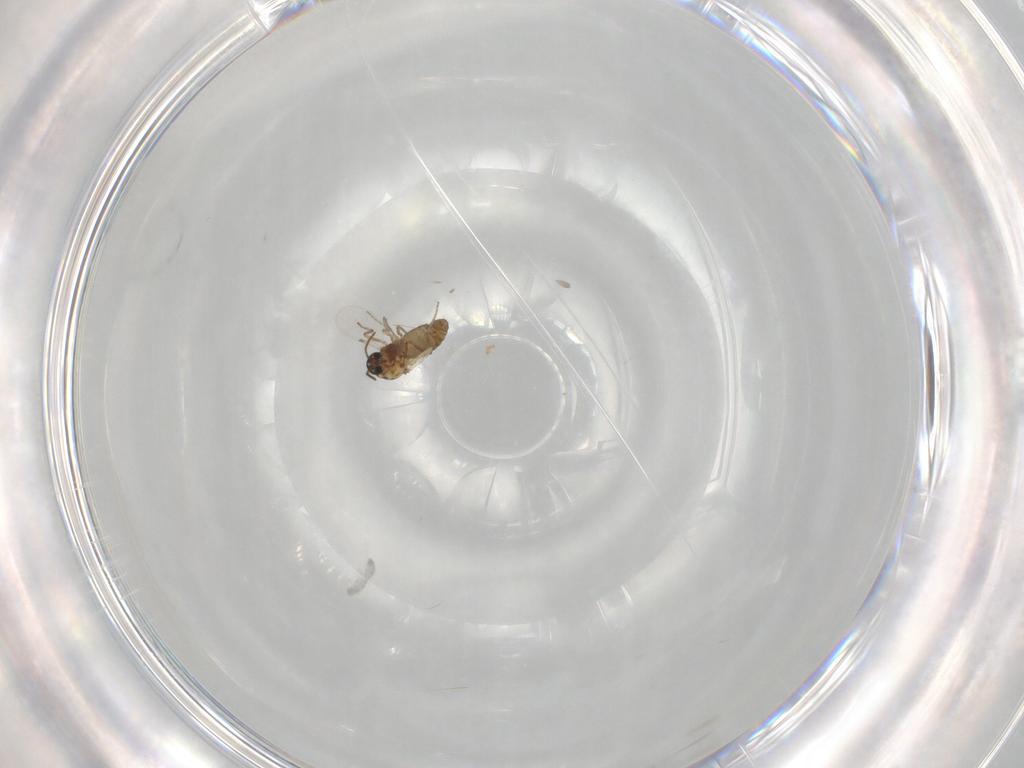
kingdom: Animalia
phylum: Arthropoda
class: Insecta
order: Diptera
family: Ceratopogonidae
